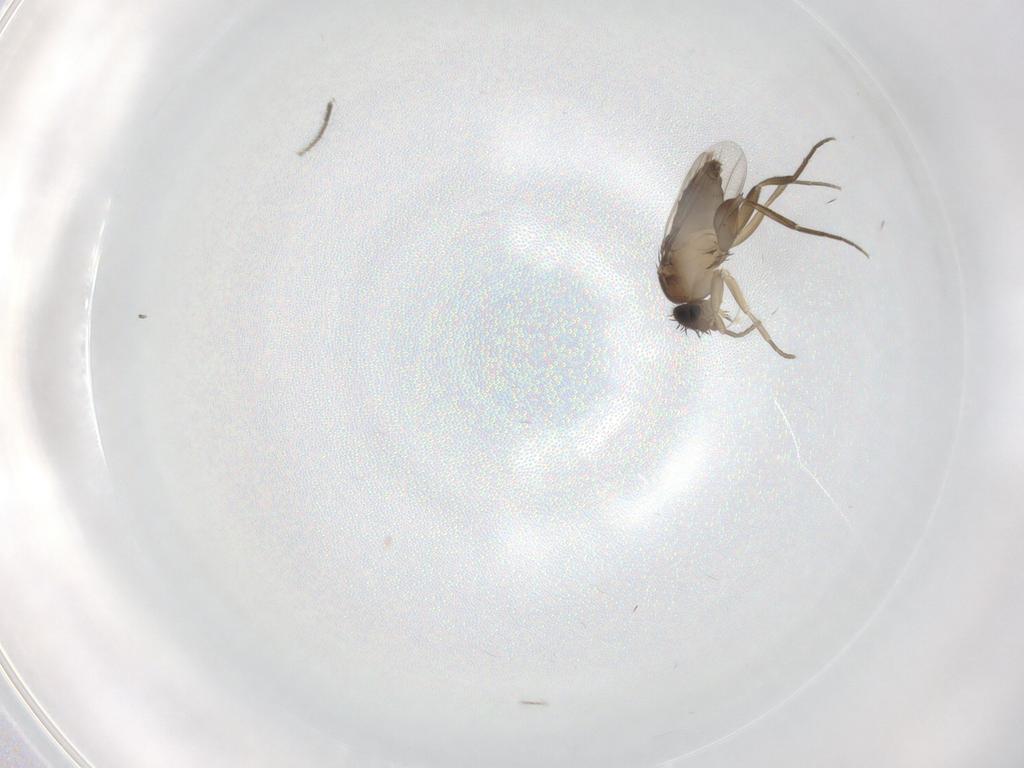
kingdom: Animalia
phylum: Arthropoda
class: Insecta
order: Diptera
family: Phoridae
